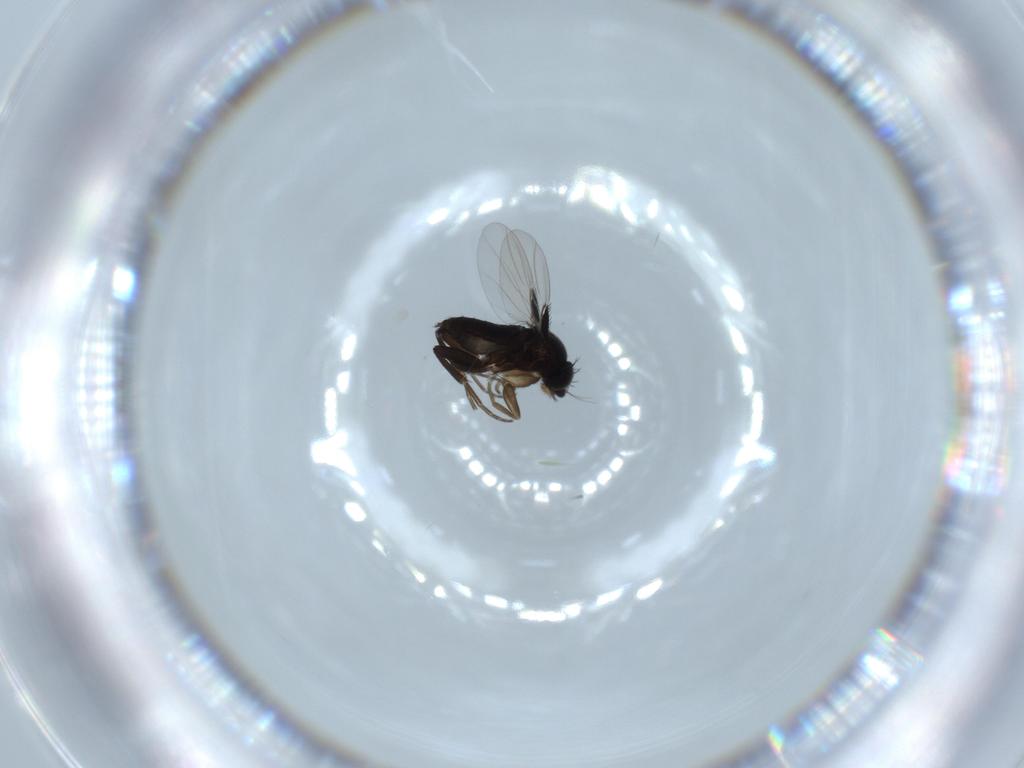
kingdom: Animalia
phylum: Arthropoda
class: Insecta
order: Diptera
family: Phoridae
